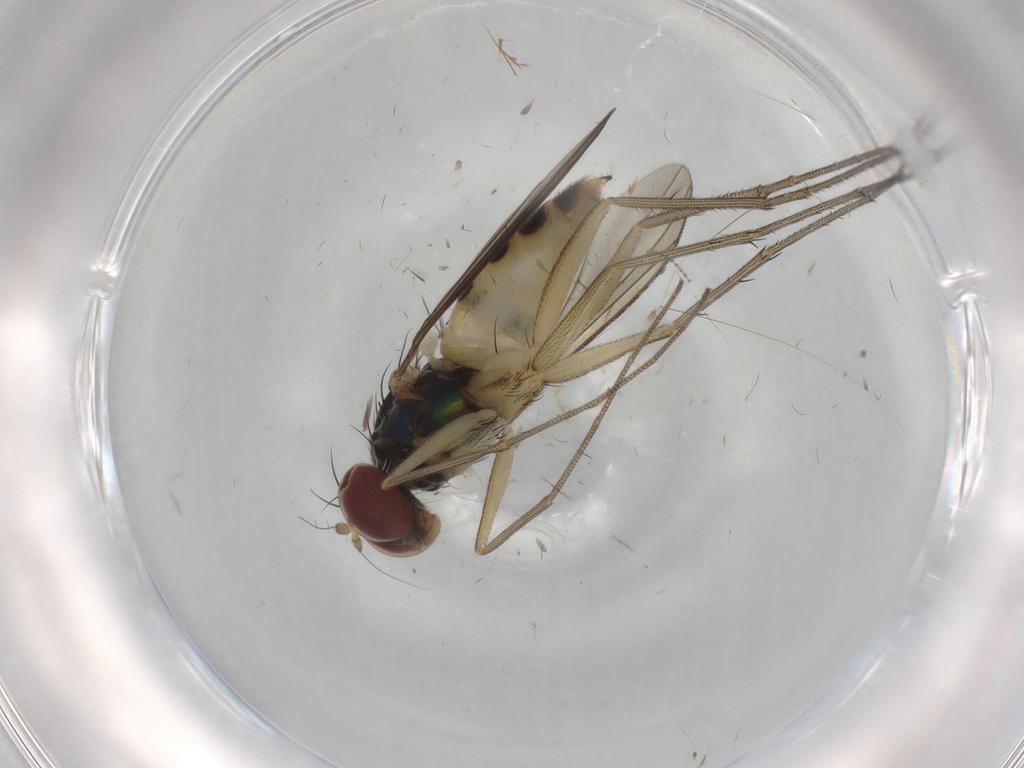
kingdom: Animalia
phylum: Arthropoda
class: Insecta
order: Diptera
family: Dolichopodidae
